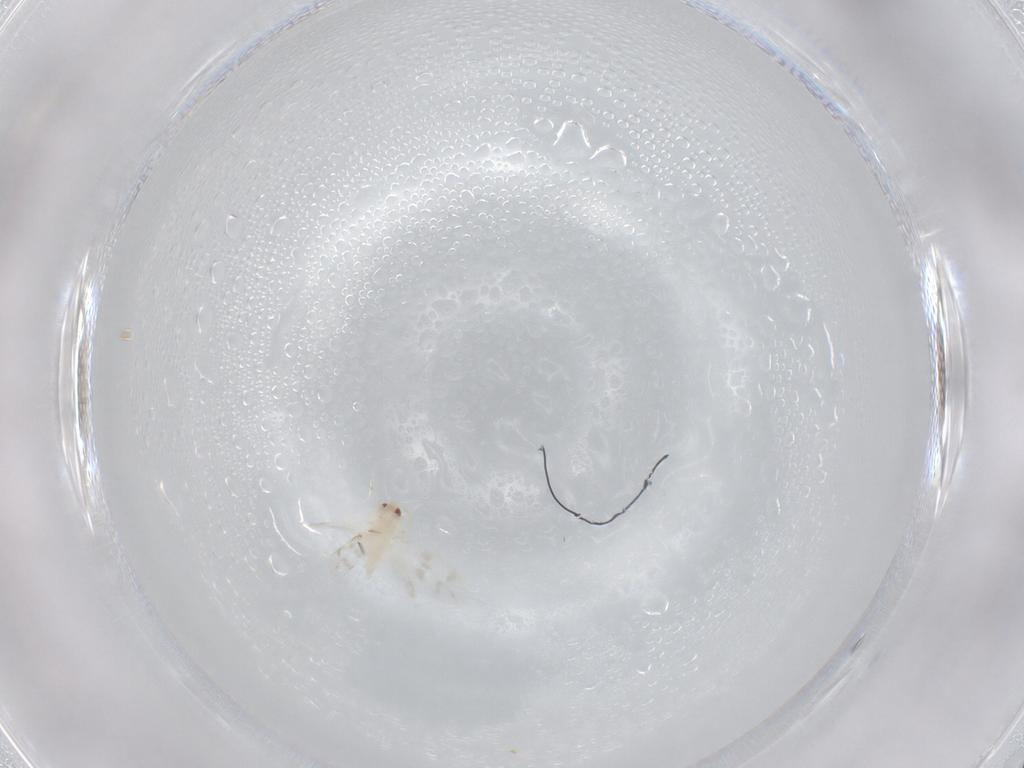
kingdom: Animalia
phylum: Arthropoda
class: Insecta
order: Hemiptera
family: Aleyrodidae
